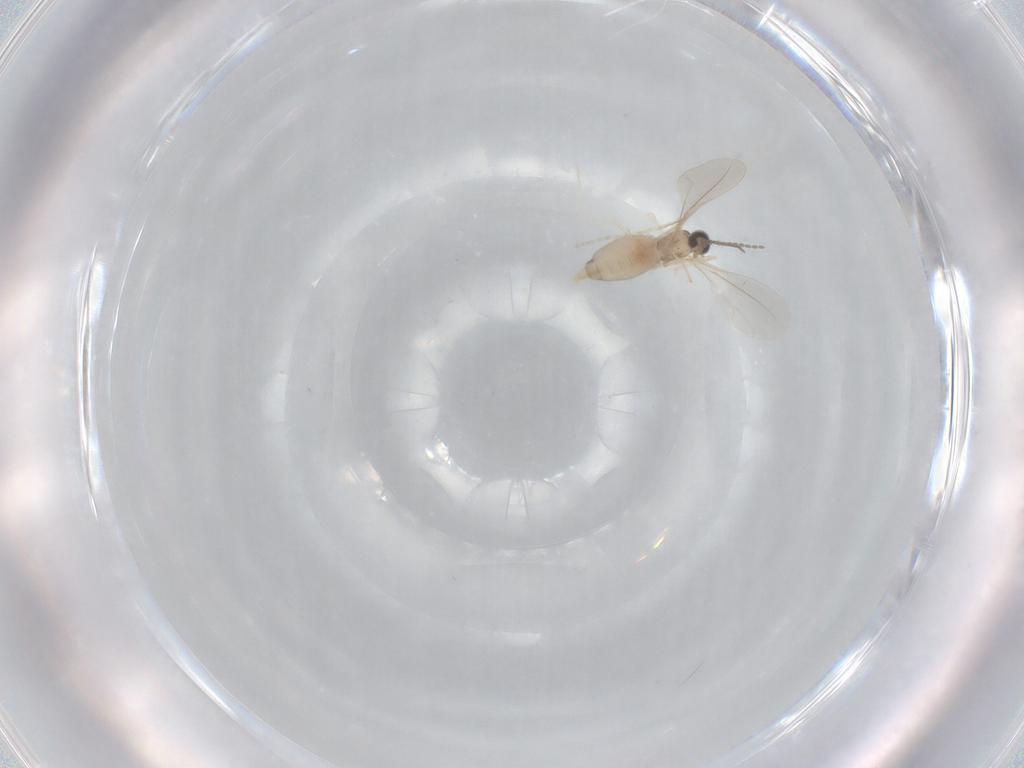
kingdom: Animalia
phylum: Arthropoda
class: Insecta
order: Diptera
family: Cecidomyiidae
